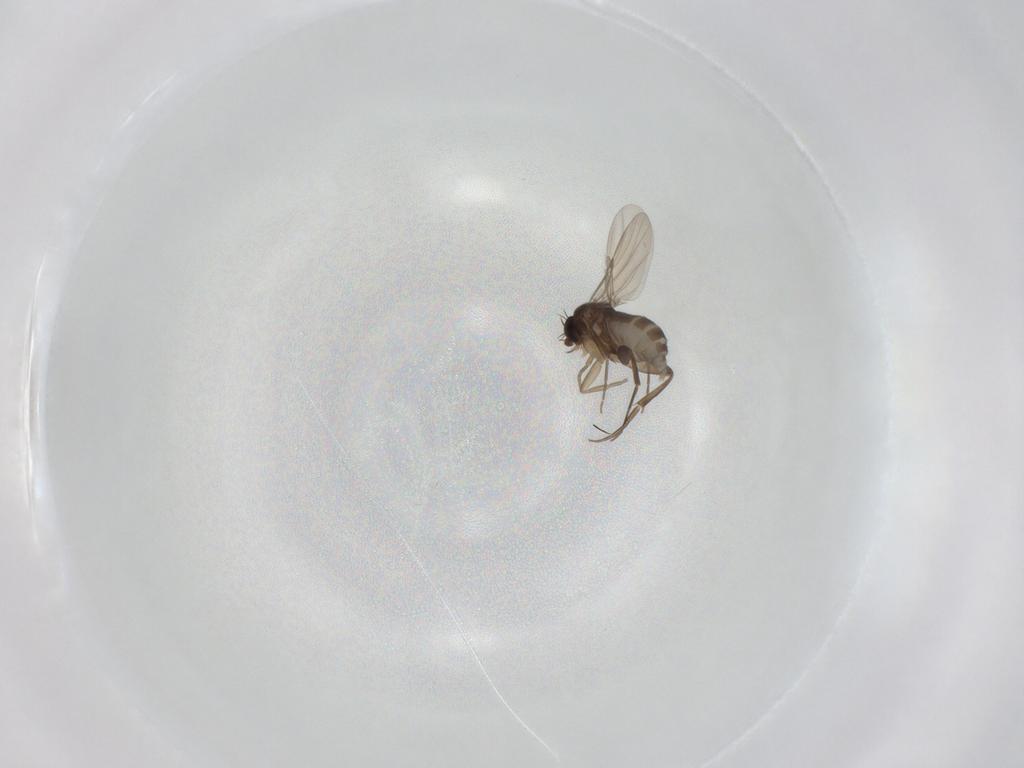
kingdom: Animalia
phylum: Arthropoda
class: Insecta
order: Diptera
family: Phoridae
